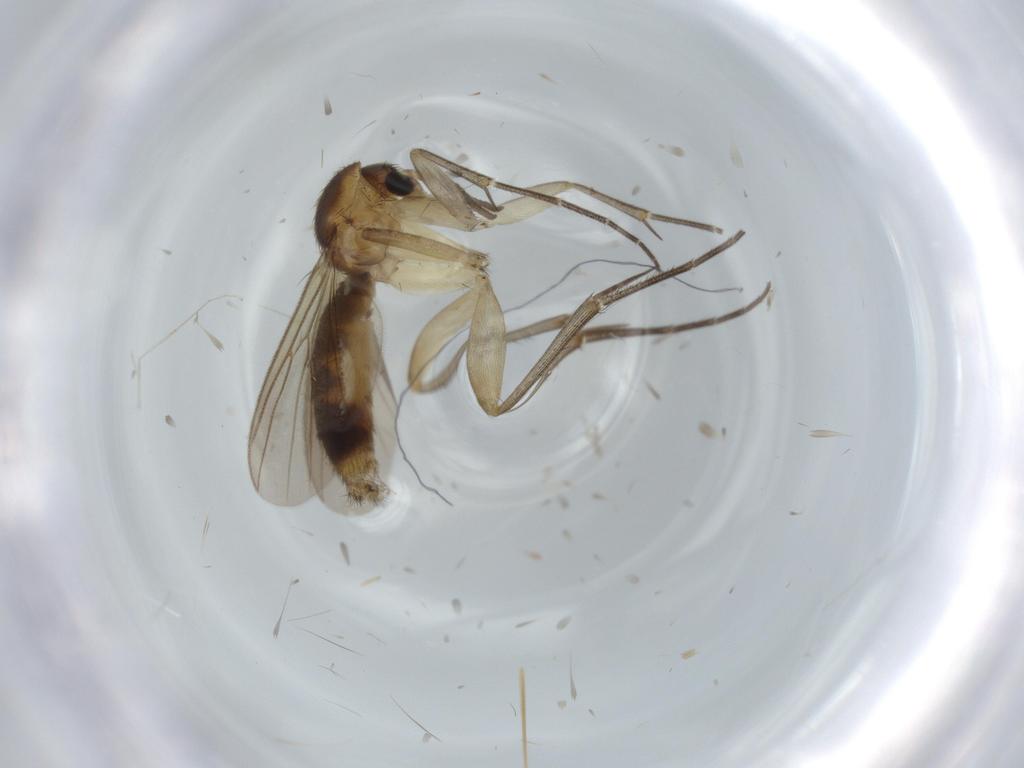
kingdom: Animalia
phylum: Arthropoda
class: Insecta
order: Diptera
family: Mycetophilidae
